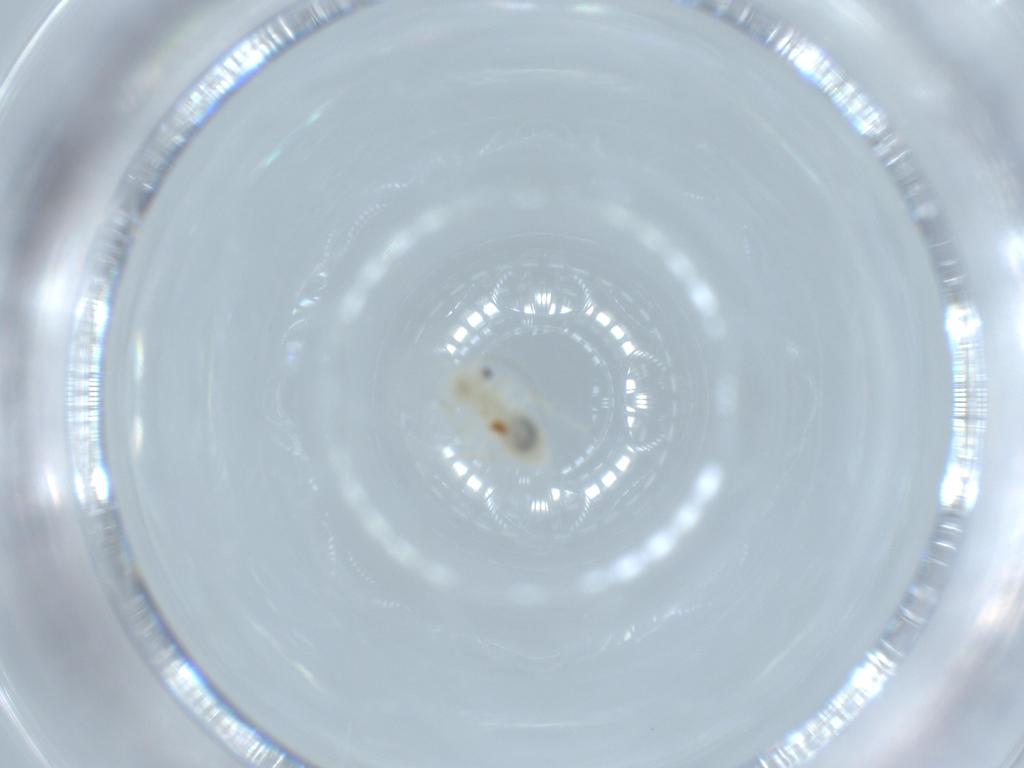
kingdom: Animalia
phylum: Arthropoda
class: Insecta
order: Psocodea
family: Caeciliusidae
